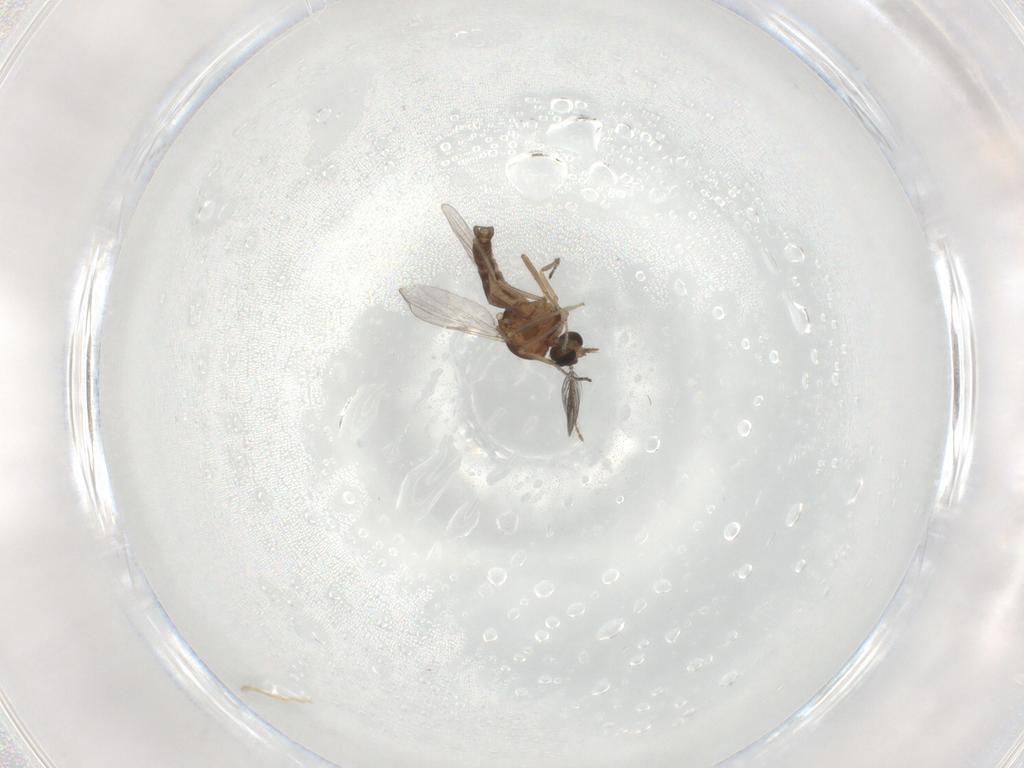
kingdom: Animalia
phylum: Arthropoda
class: Insecta
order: Diptera
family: Ceratopogonidae
